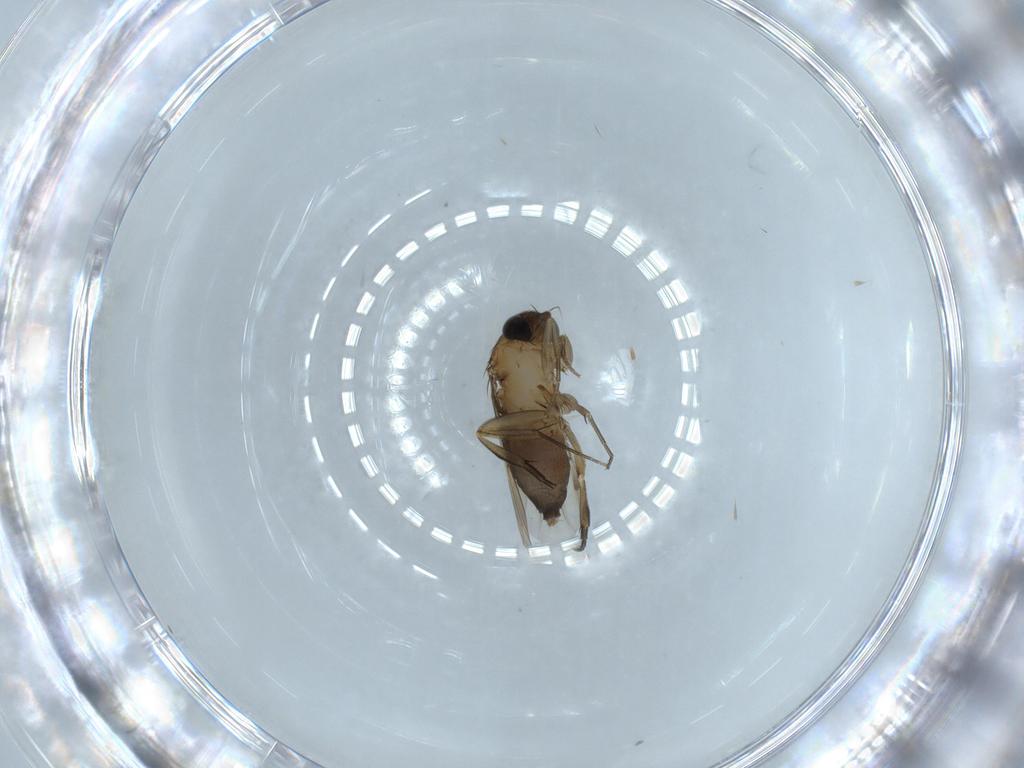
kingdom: Animalia
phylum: Arthropoda
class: Insecta
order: Diptera
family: Phoridae
